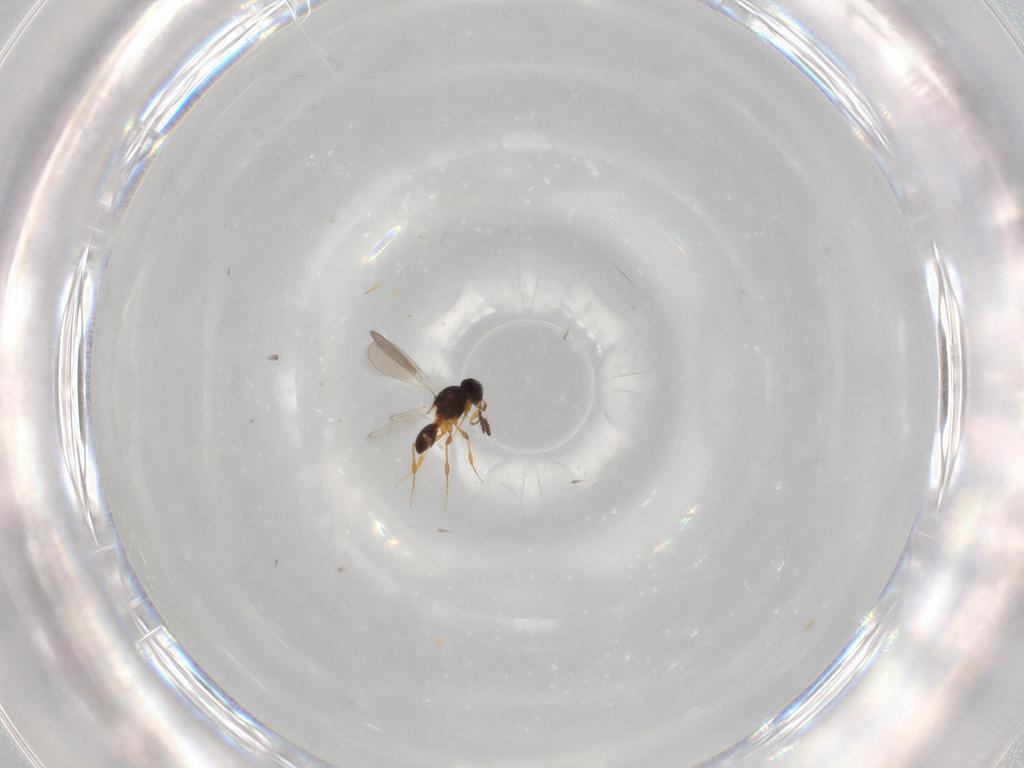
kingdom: Animalia
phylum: Arthropoda
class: Insecta
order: Hymenoptera
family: Platygastridae
